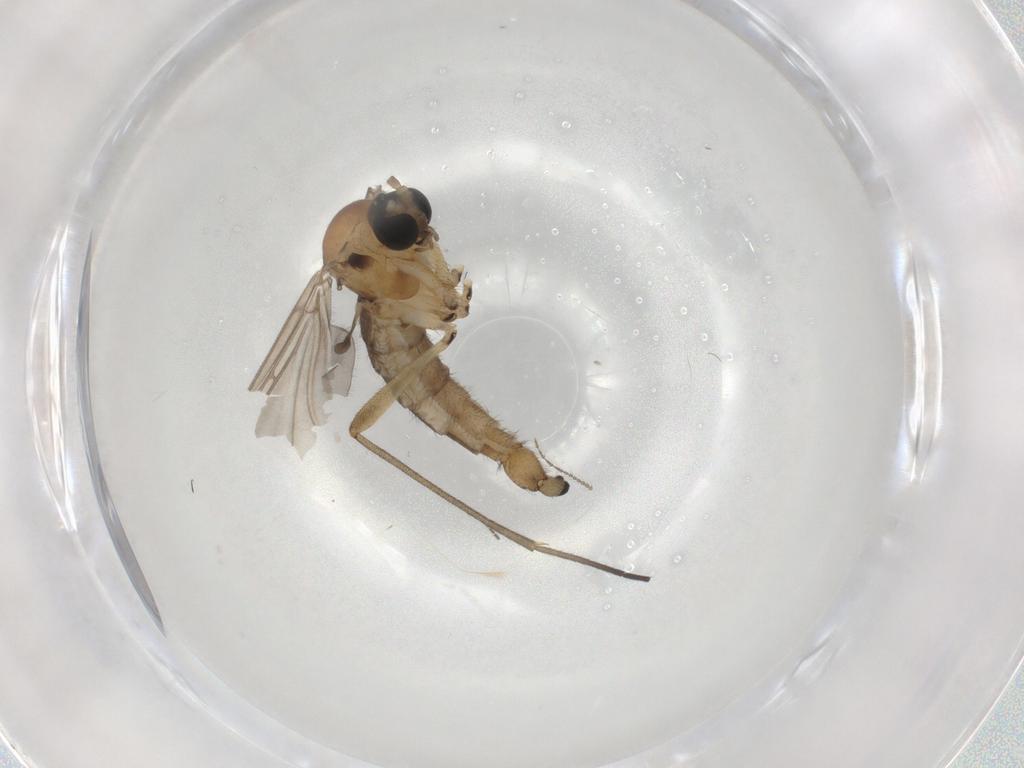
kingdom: Animalia
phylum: Arthropoda
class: Insecta
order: Diptera
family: Sciaridae
